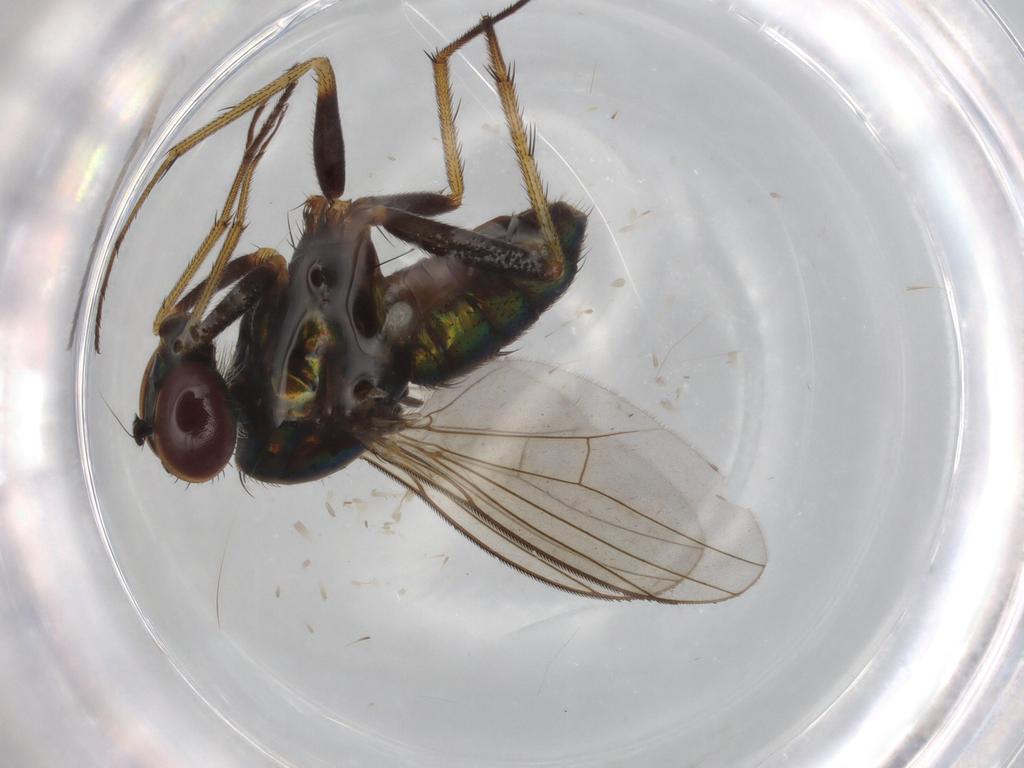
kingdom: Animalia
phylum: Arthropoda
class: Insecta
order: Diptera
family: Dolichopodidae
